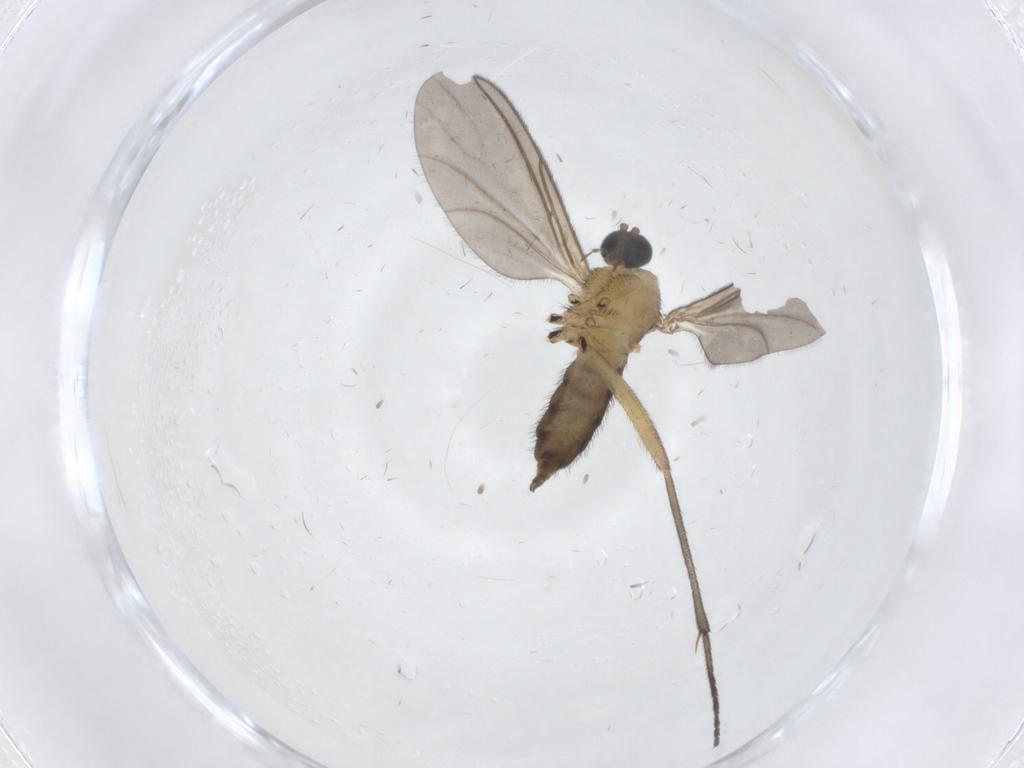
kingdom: Animalia
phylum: Arthropoda
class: Insecta
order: Diptera
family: Sciaridae
